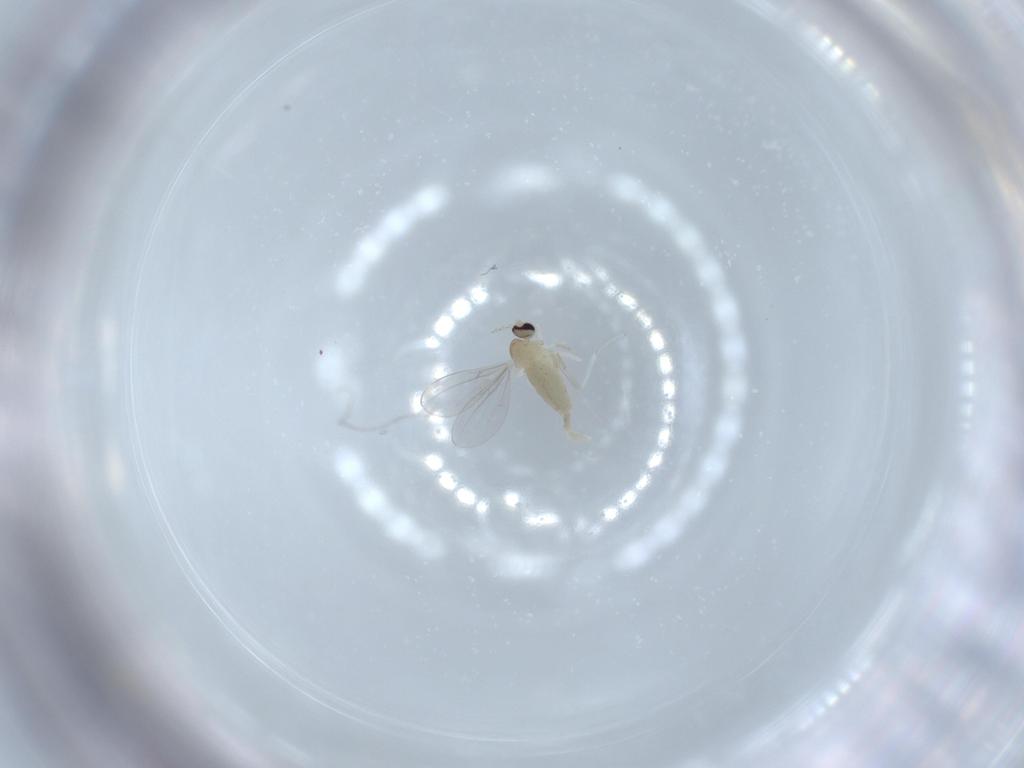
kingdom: Animalia
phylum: Arthropoda
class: Insecta
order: Diptera
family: Cecidomyiidae
